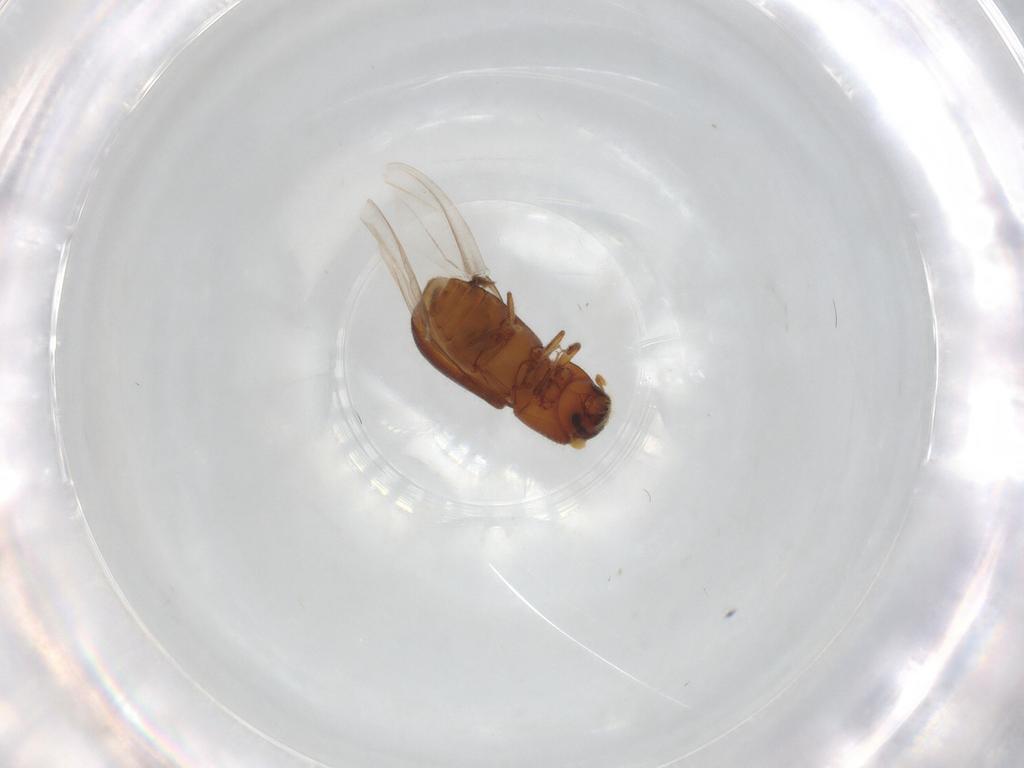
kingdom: Animalia
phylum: Arthropoda
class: Insecta
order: Coleoptera
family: Curculionidae
